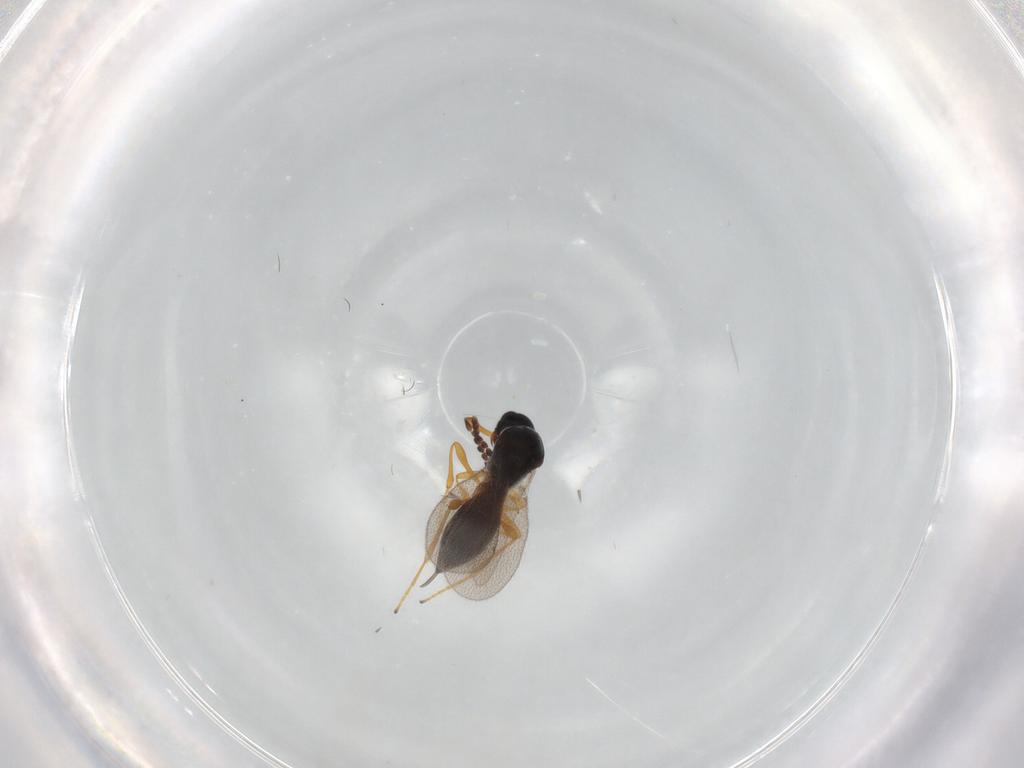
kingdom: Animalia
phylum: Arthropoda
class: Insecta
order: Hymenoptera
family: Platygastridae
